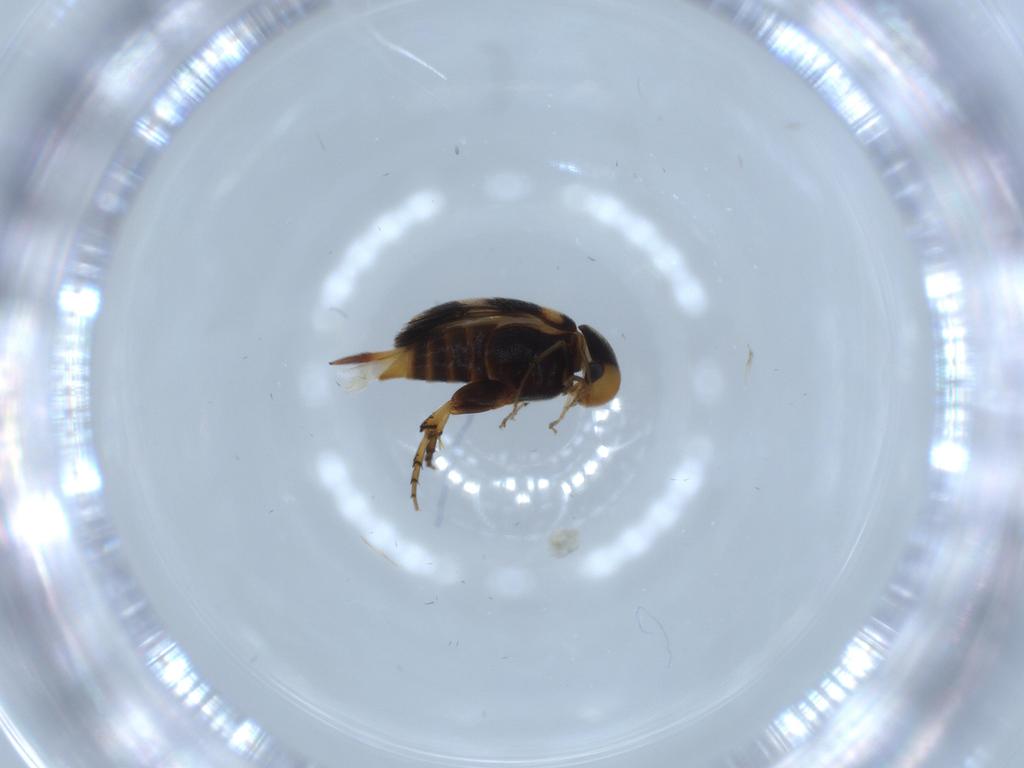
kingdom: Animalia
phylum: Arthropoda
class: Insecta
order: Coleoptera
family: Mordellidae
